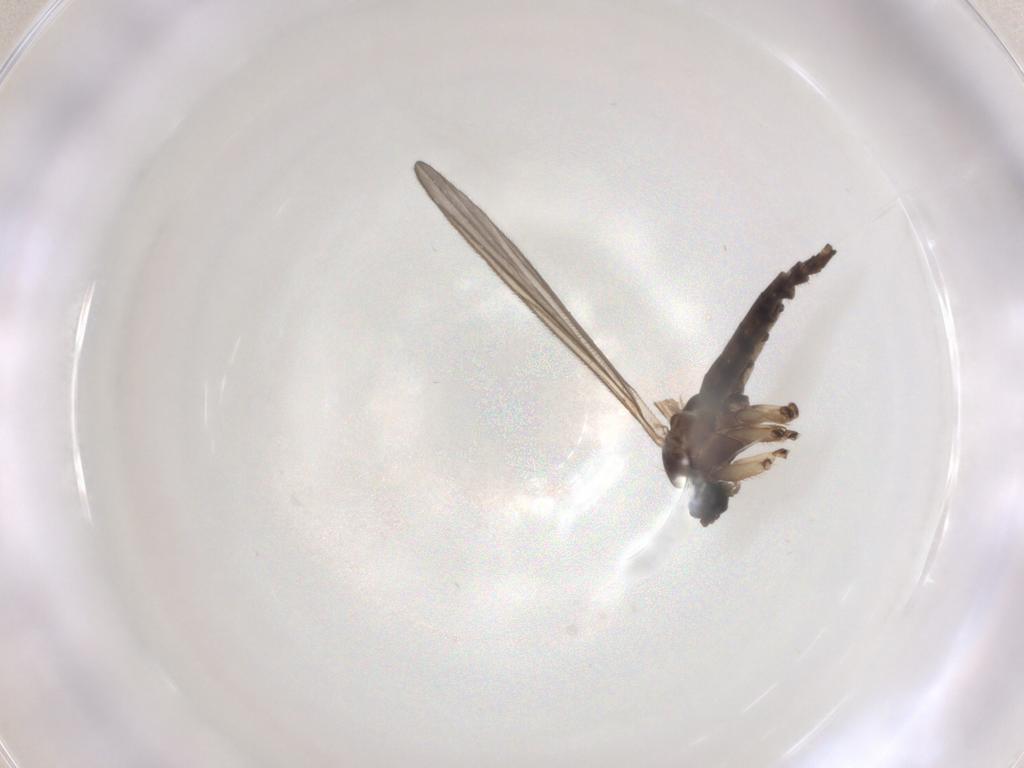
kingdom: Animalia
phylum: Arthropoda
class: Insecta
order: Diptera
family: Sciaridae
